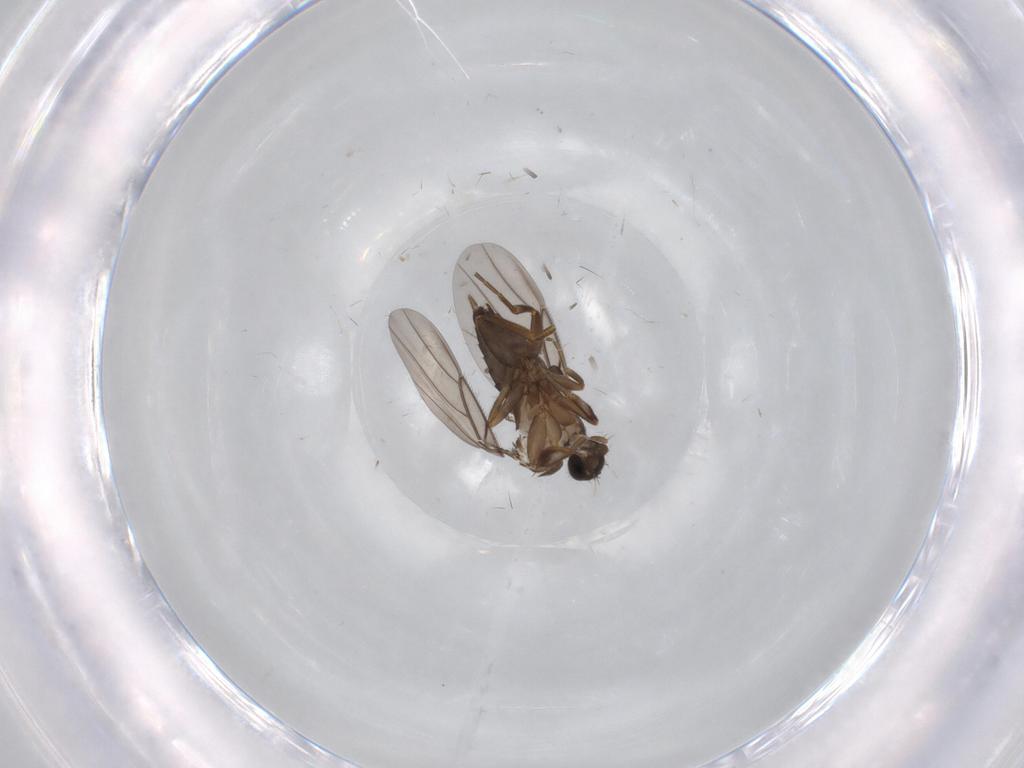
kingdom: Animalia
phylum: Arthropoda
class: Insecta
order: Diptera
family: Phoridae
